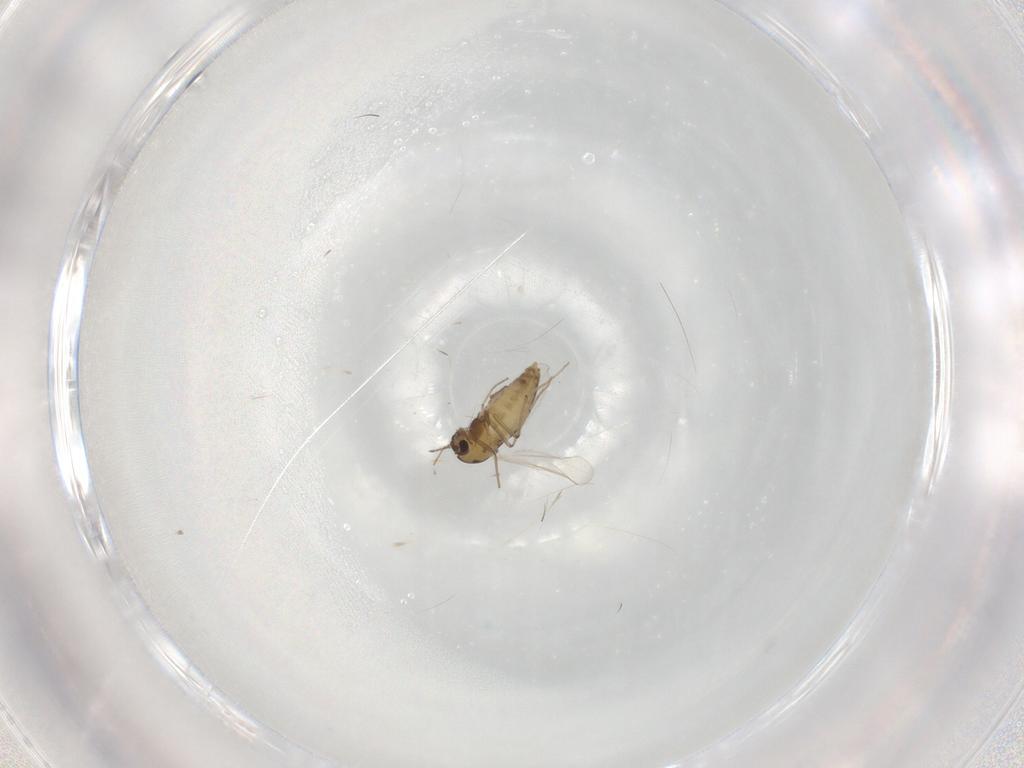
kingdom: Animalia
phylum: Arthropoda
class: Insecta
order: Diptera
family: Chironomidae
